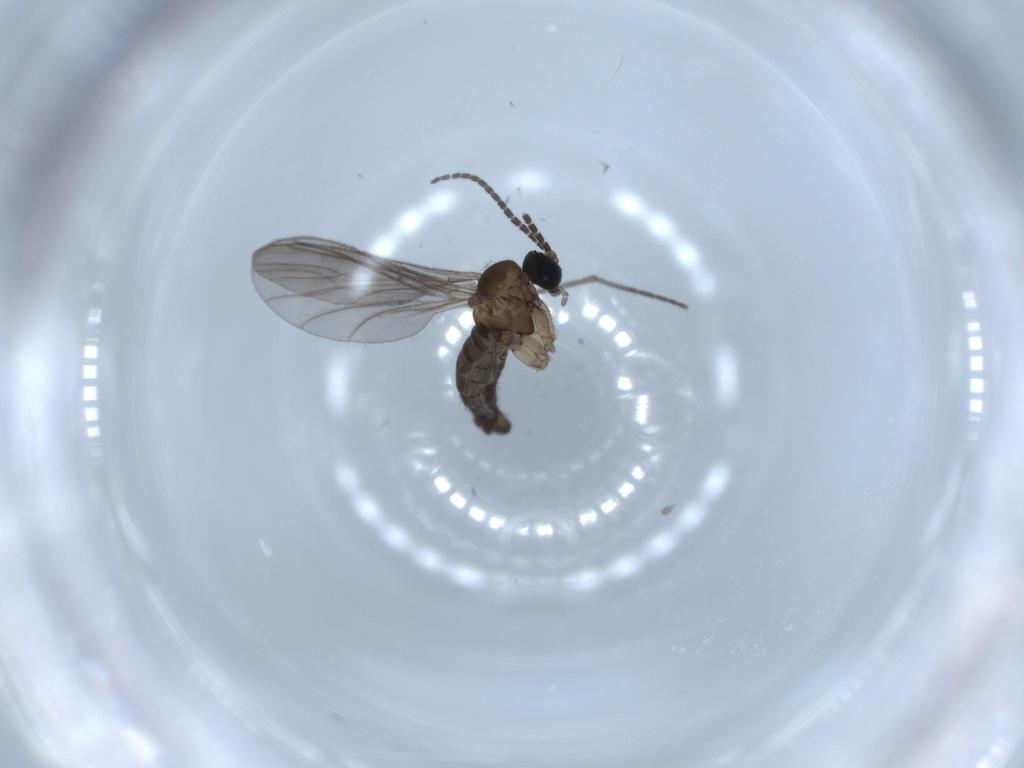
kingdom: Animalia
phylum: Arthropoda
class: Insecta
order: Diptera
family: Sciaridae
